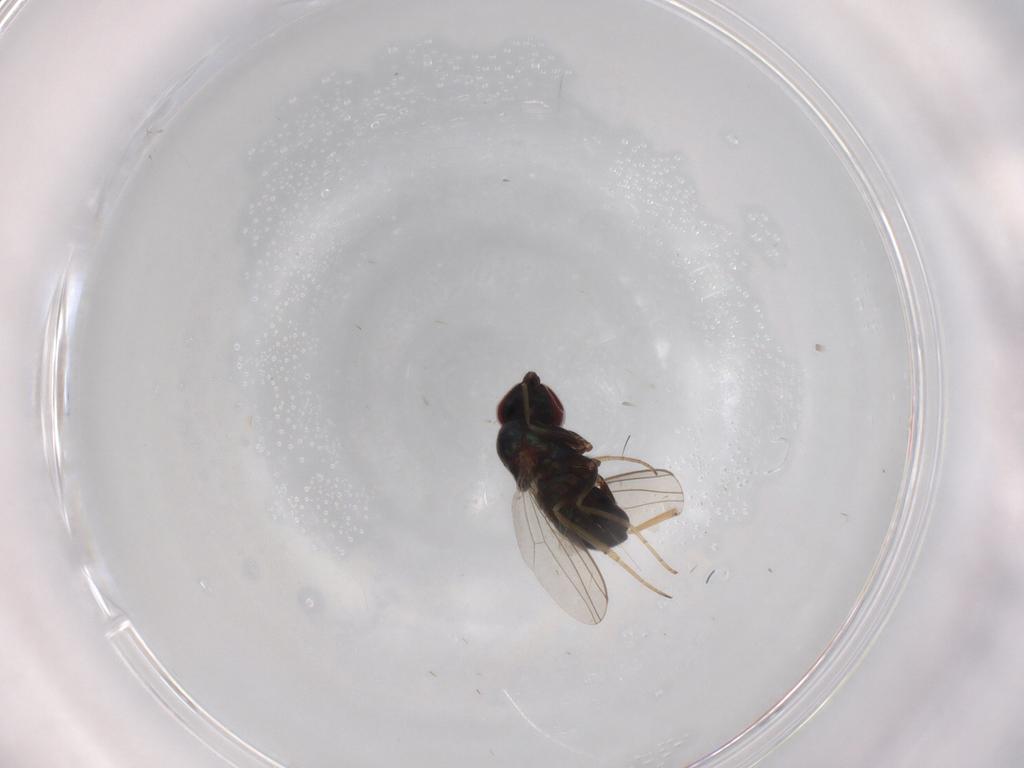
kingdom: Animalia
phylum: Arthropoda
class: Insecta
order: Diptera
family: Dolichopodidae
